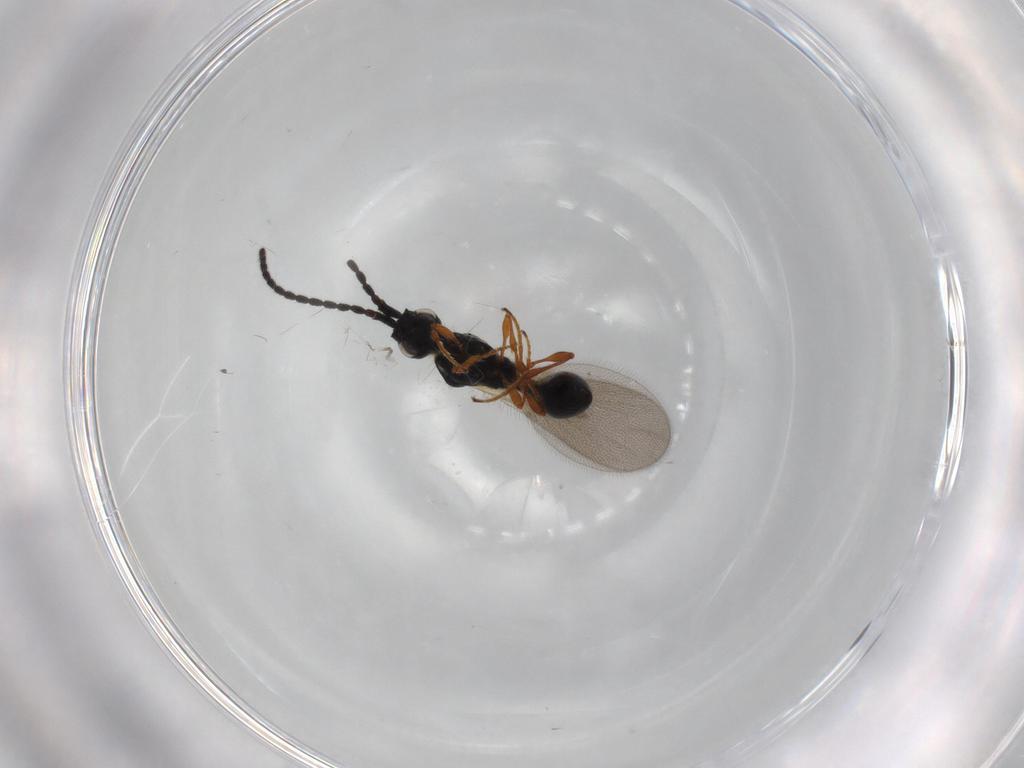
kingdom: Animalia
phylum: Arthropoda
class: Insecta
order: Hymenoptera
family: Diapriidae
